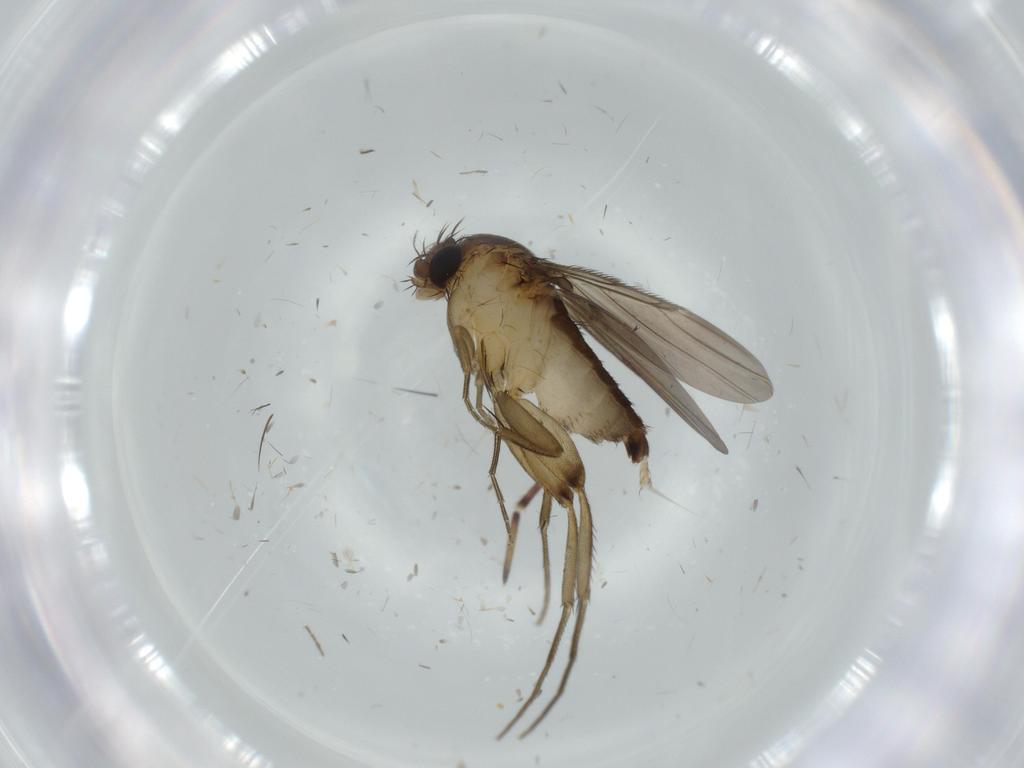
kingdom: Animalia
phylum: Arthropoda
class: Insecta
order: Diptera
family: Phoridae
